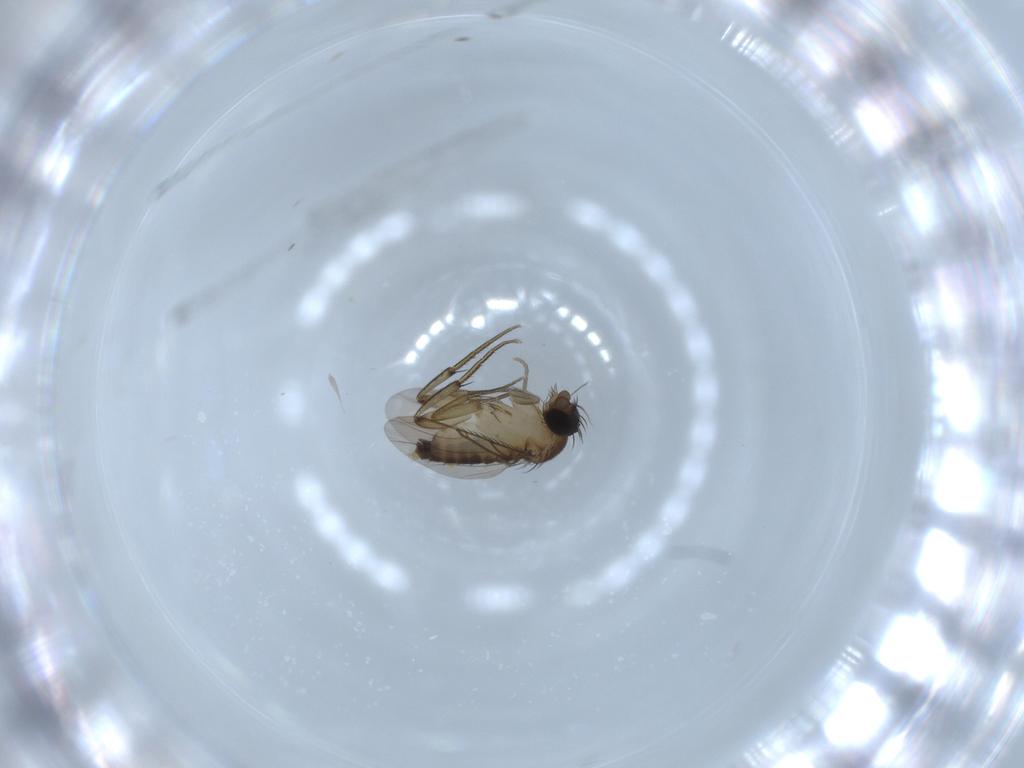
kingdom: Animalia
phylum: Arthropoda
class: Insecta
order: Diptera
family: Phoridae
